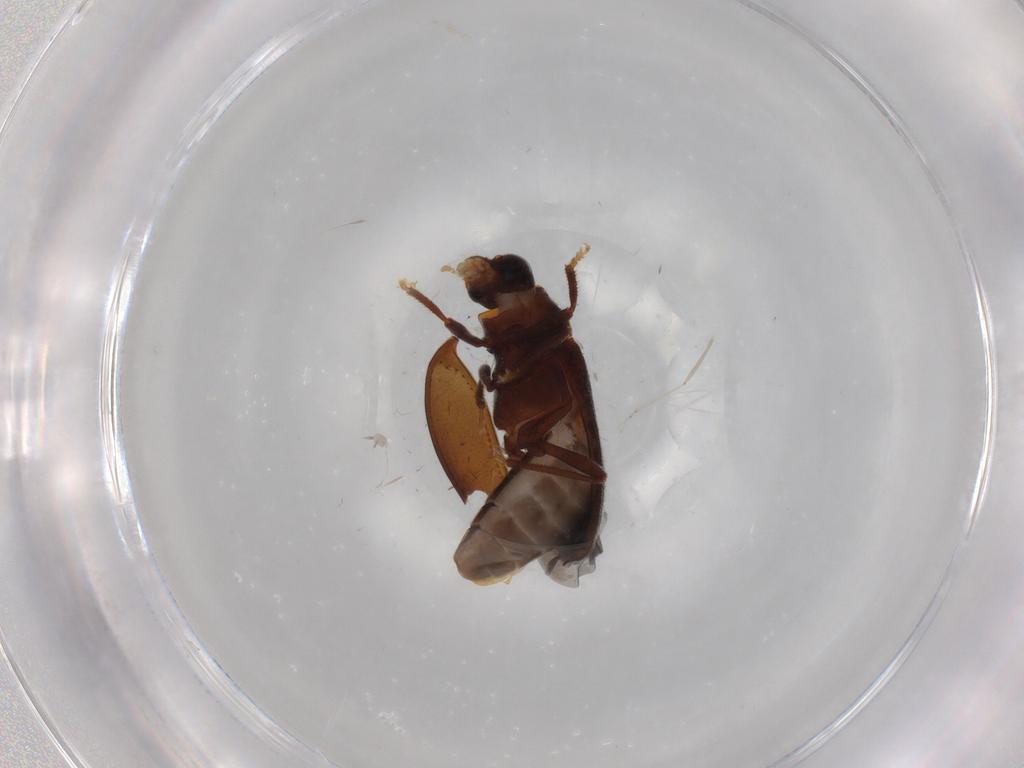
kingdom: Animalia
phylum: Arthropoda
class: Insecta
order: Coleoptera
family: Ptilodactylidae
